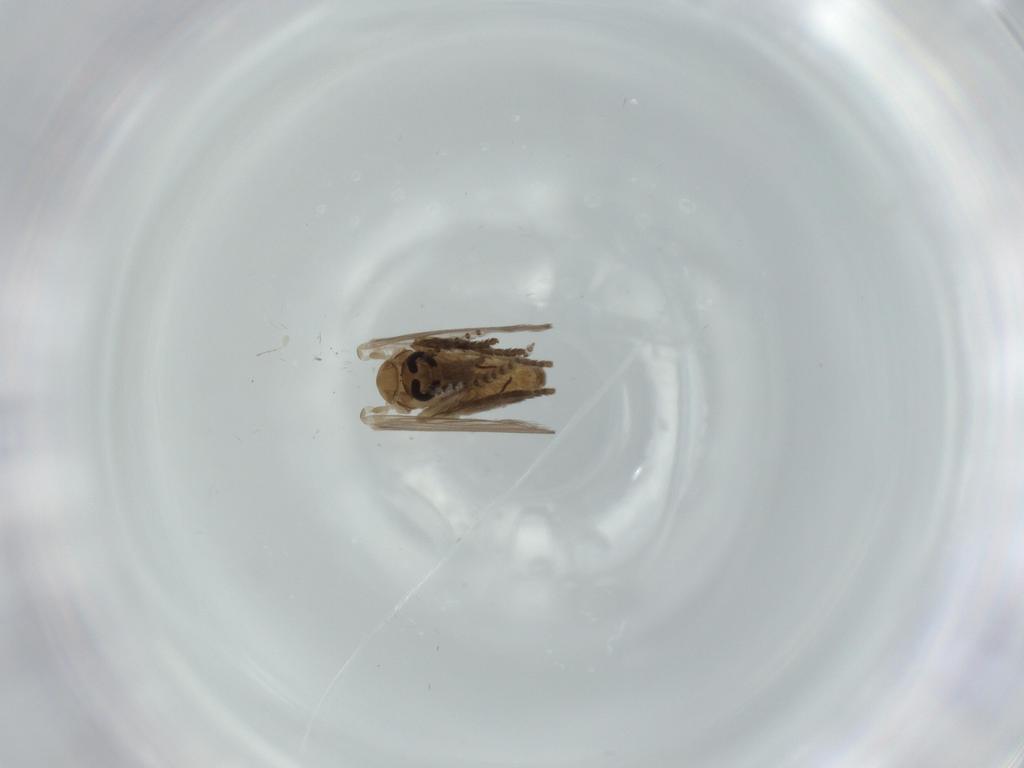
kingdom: Animalia
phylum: Arthropoda
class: Insecta
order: Diptera
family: Psychodidae
